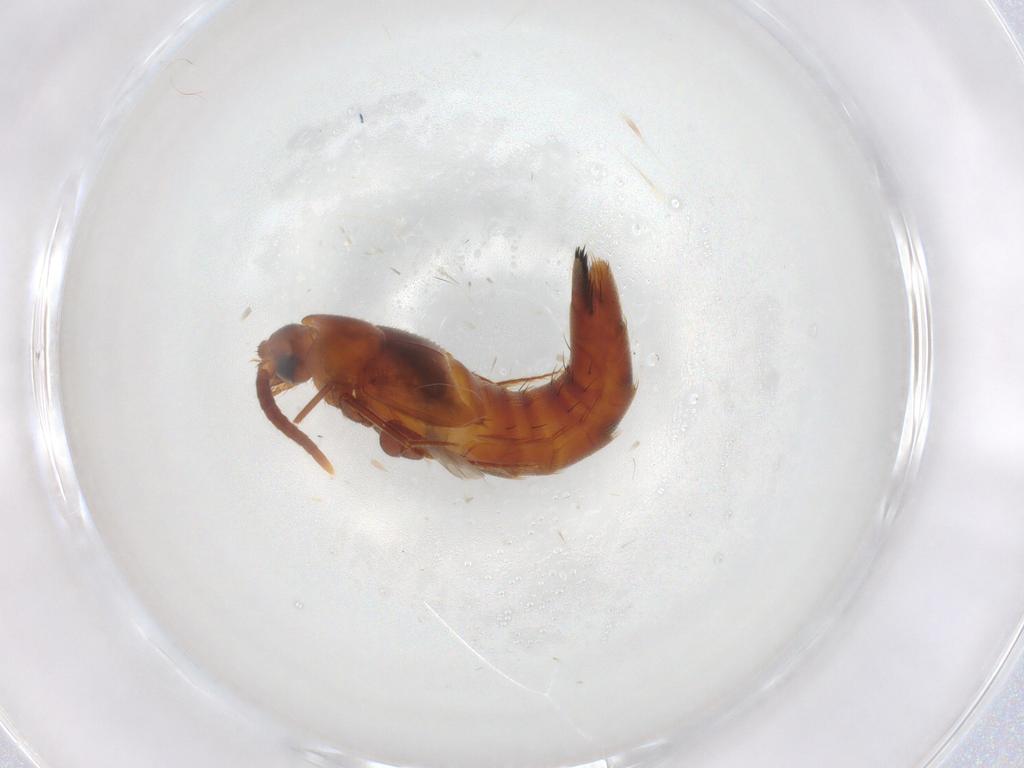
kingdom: Animalia
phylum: Arthropoda
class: Insecta
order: Coleoptera
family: Staphylinidae
